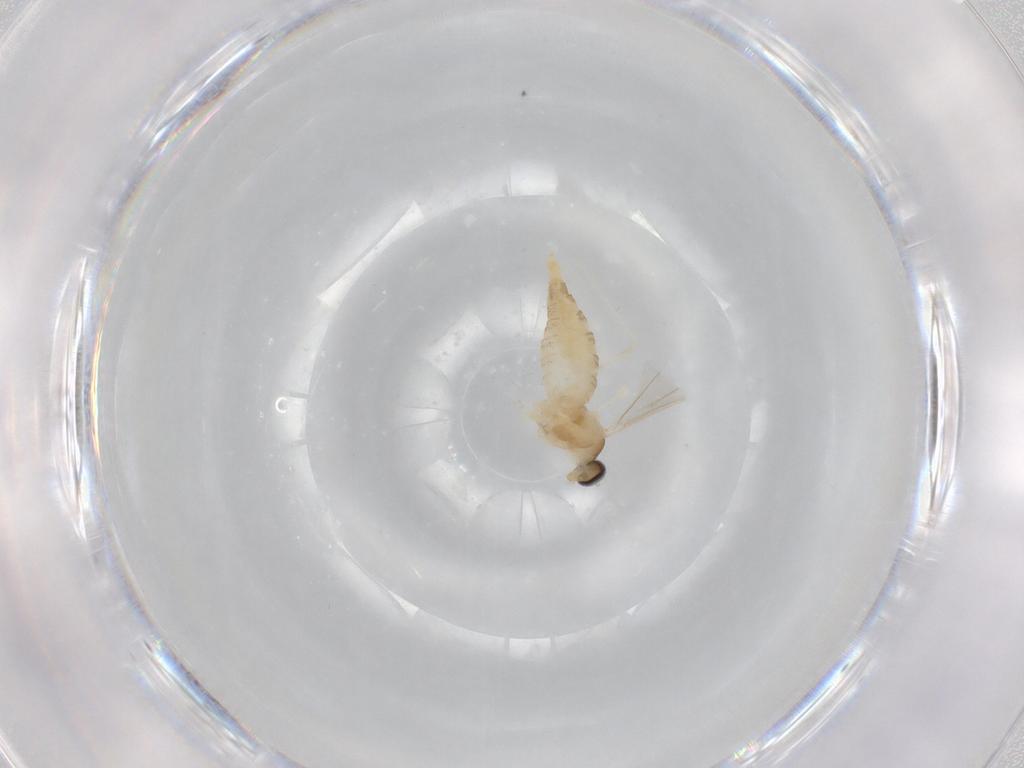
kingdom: Animalia
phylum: Arthropoda
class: Insecta
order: Diptera
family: Cecidomyiidae
